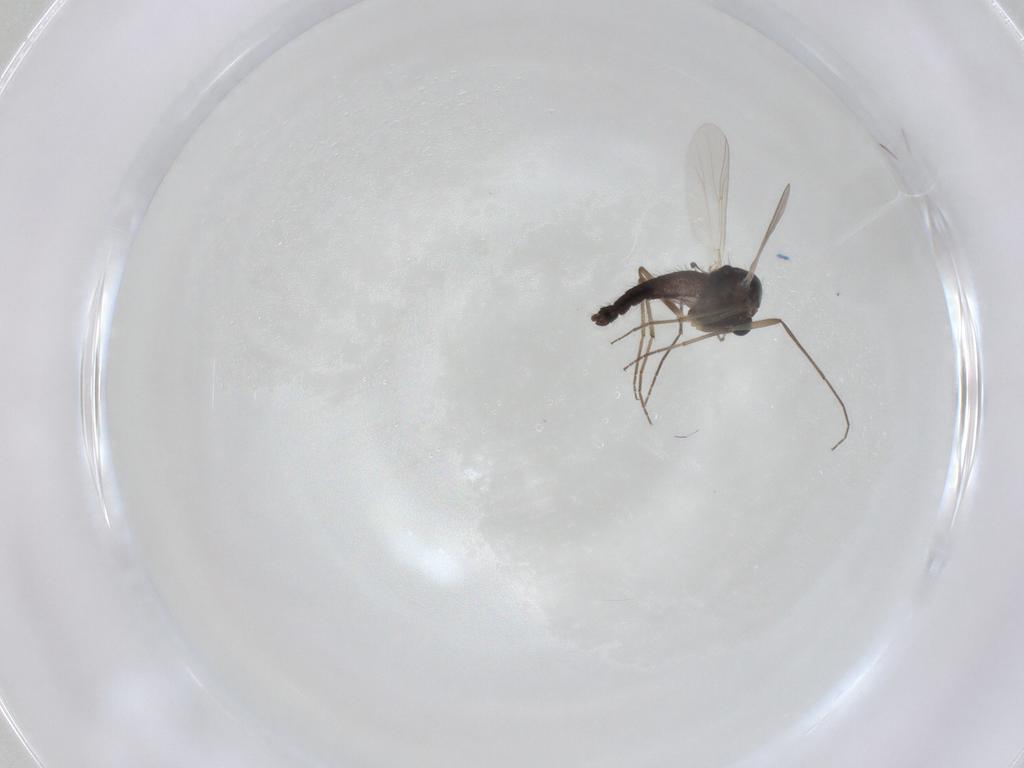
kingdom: Animalia
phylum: Arthropoda
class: Insecta
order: Diptera
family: Chironomidae
